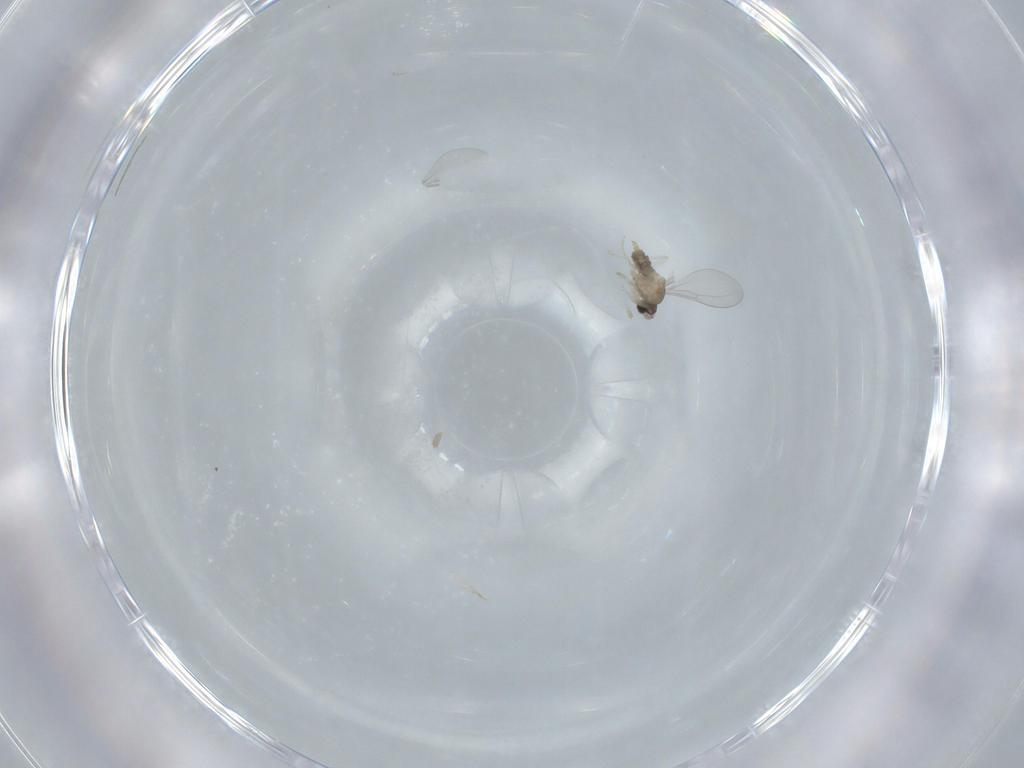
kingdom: Animalia
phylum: Arthropoda
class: Insecta
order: Diptera
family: Cecidomyiidae
